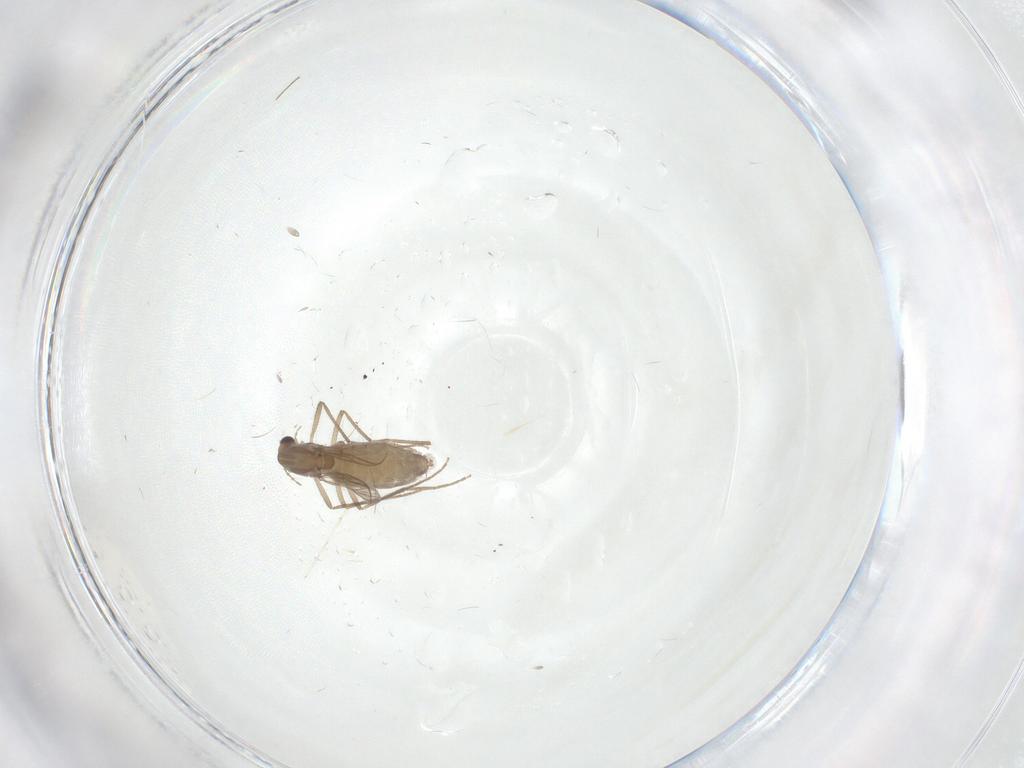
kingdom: Animalia
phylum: Arthropoda
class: Insecta
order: Diptera
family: Chironomidae
